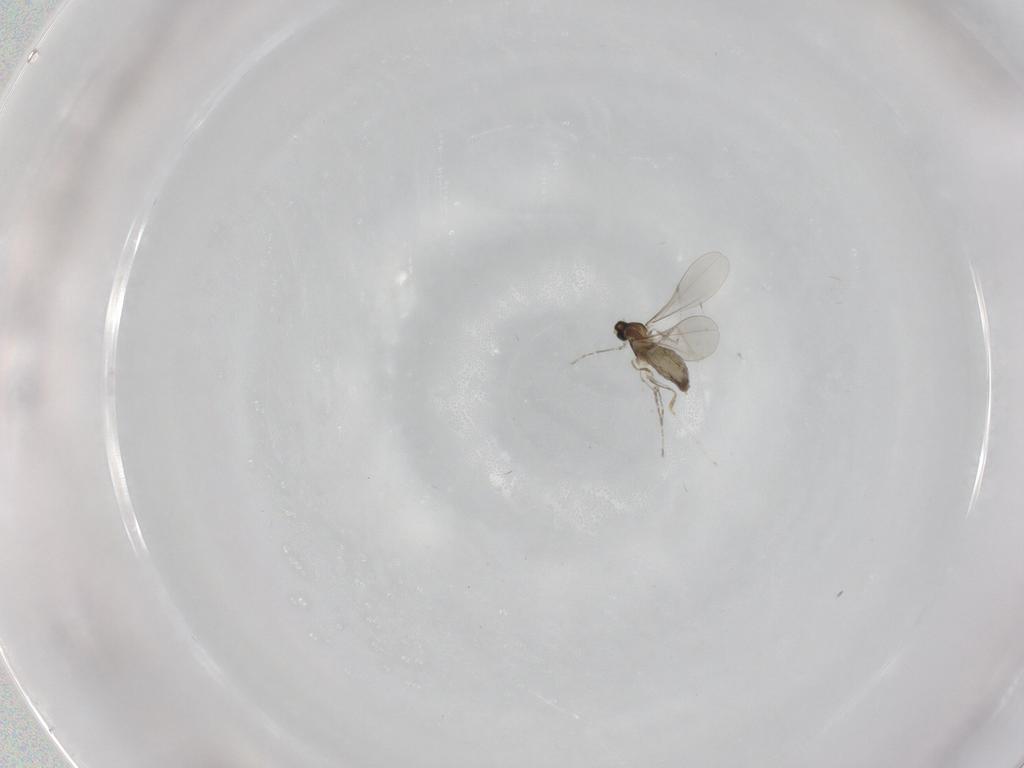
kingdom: Animalia
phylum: Arthropoda
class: Insecta
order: Diptera
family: Cecidomyiidae
